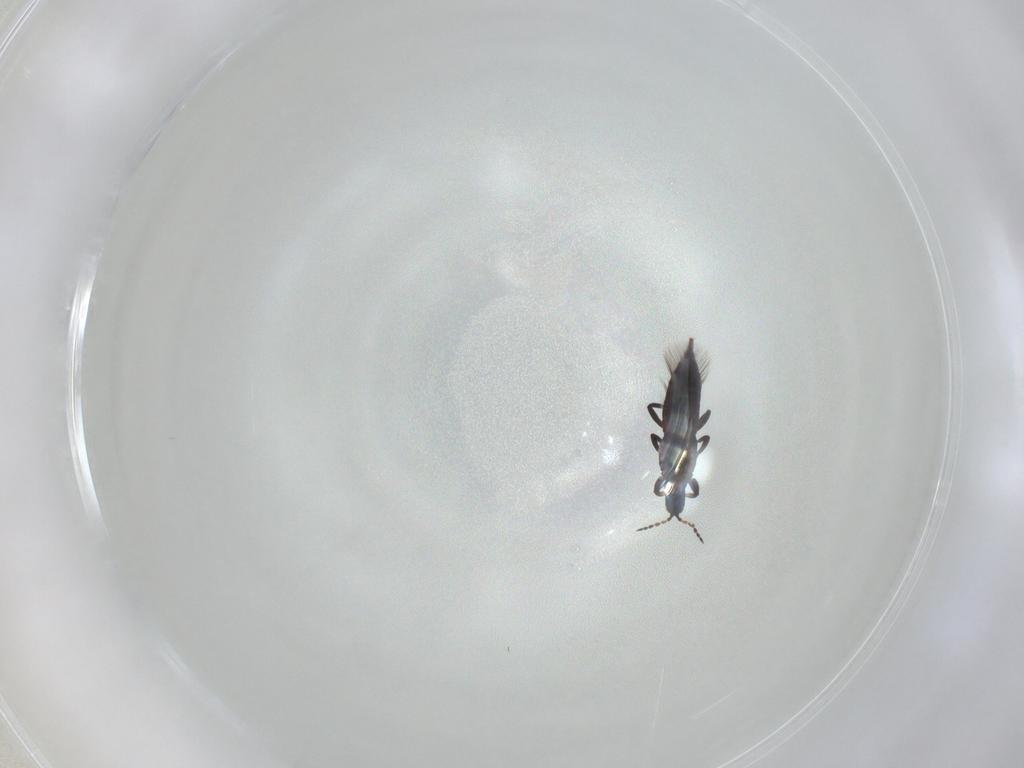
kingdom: Animalia
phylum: Arthropoda
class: Insecta
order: Thysanoptera
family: Phlaeothripidae
